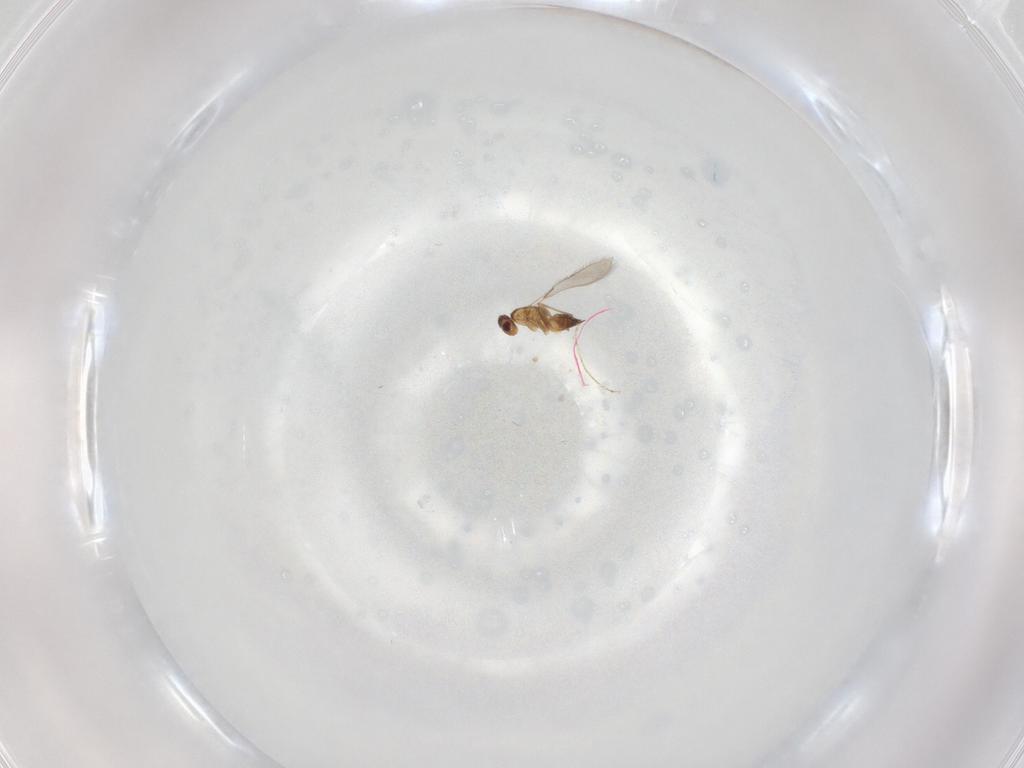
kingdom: Animalia
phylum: Arthropoda
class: Insecta
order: Hymenoptera
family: Mymaridae
